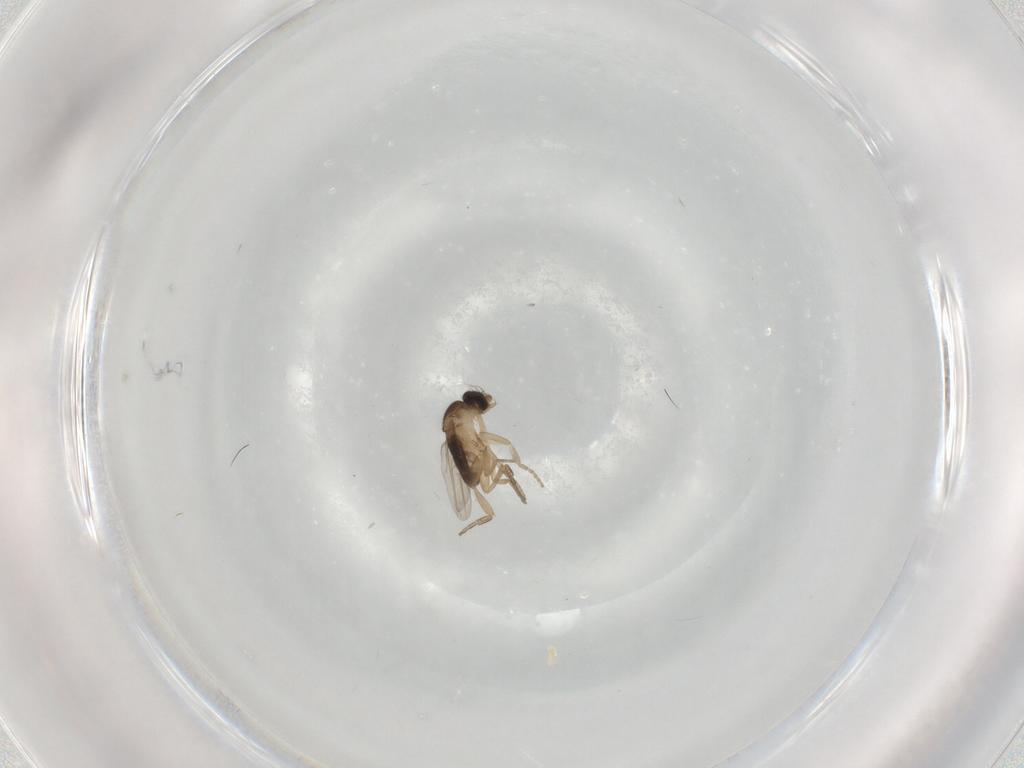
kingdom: Animalia
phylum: Arthropoda
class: Insecta
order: Diptera
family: Phoridae
